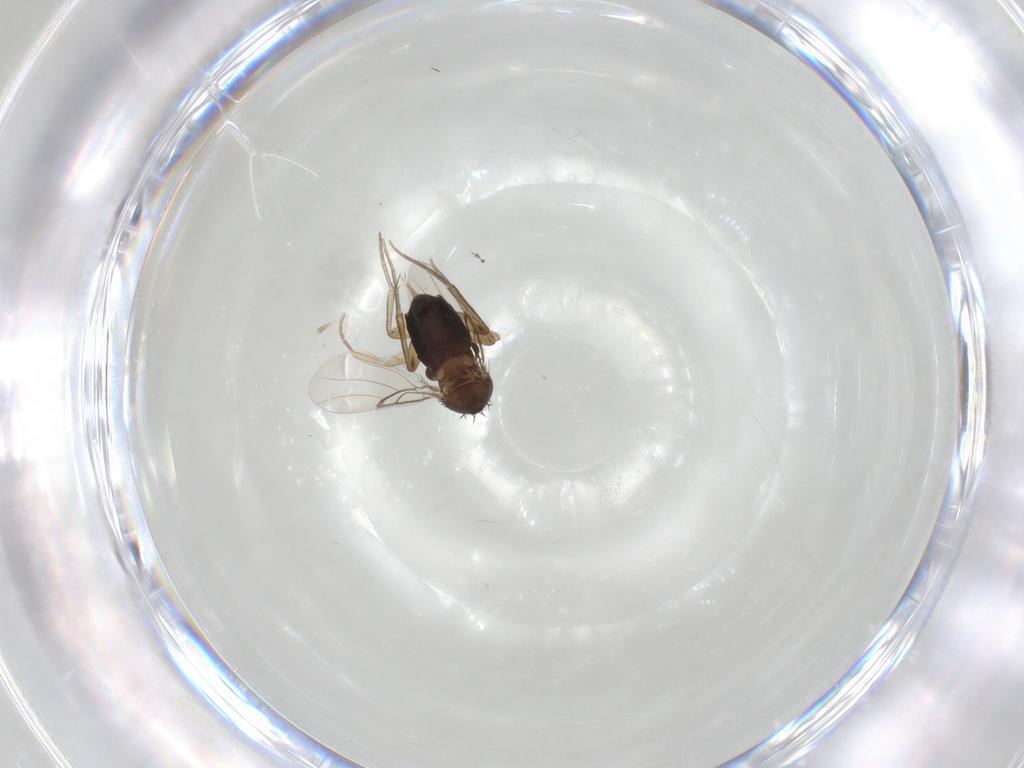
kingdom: Animalia
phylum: Arthropoda
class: Insecta
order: Diptera
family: Phoridae
